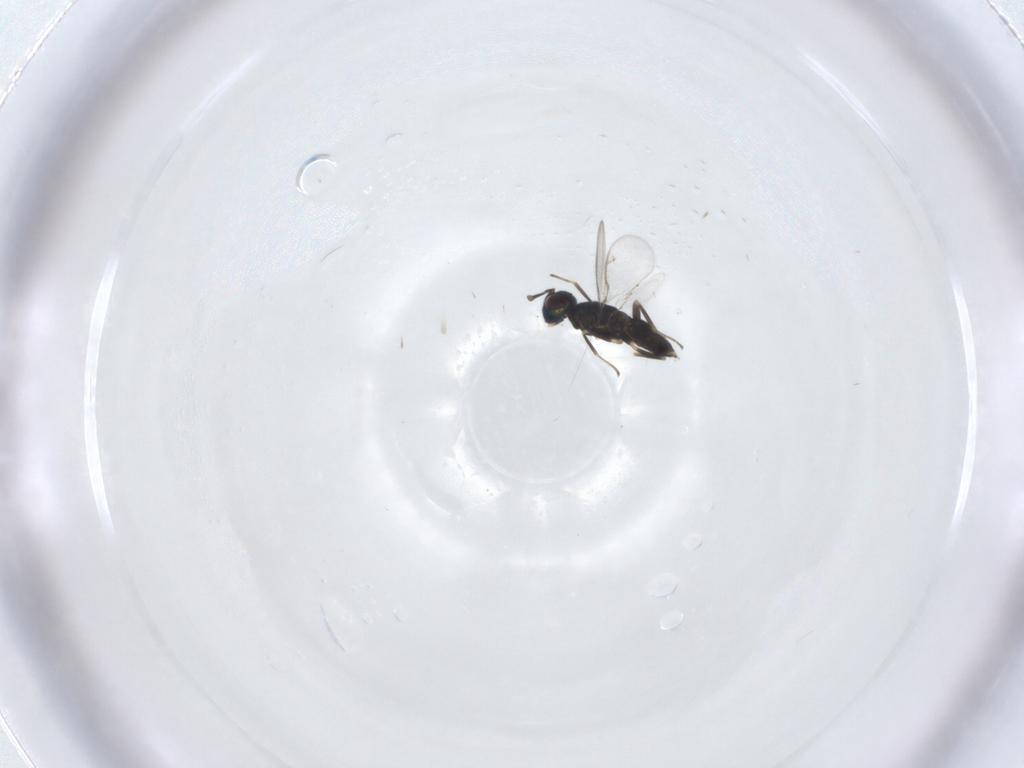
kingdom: Animalia
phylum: Arthropoda
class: Insecta
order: Hymenoptera
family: Eupelmidae
